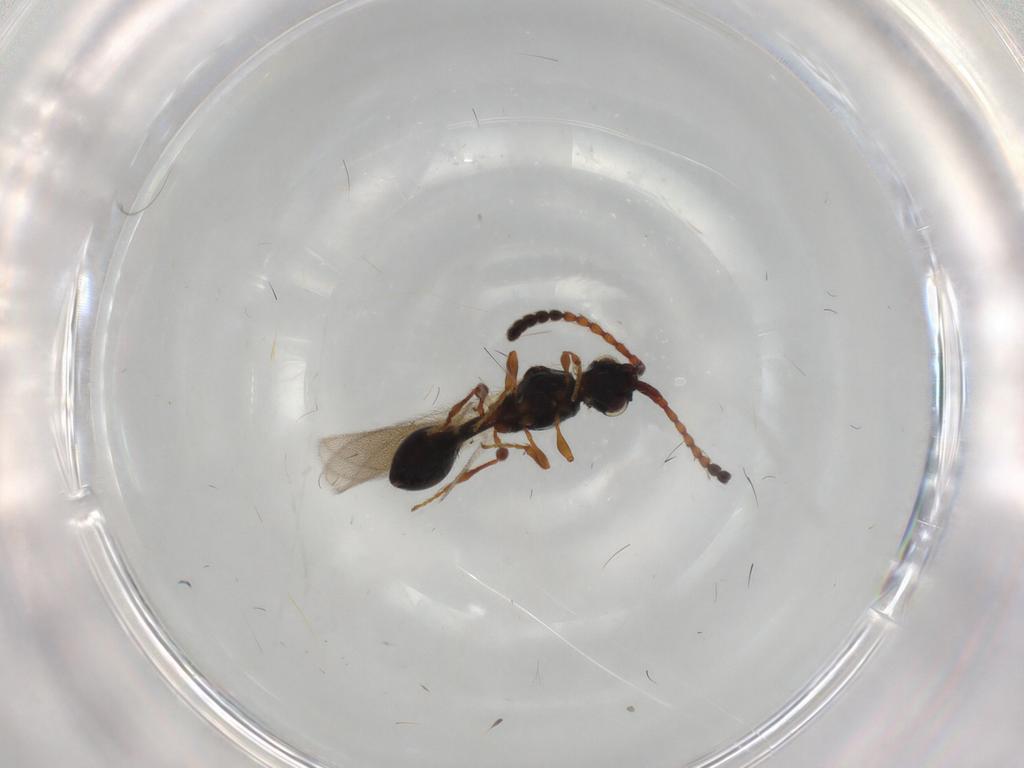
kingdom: Animalia
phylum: Arthropoda
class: Insecta
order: Hymenoptera
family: Diapriidae
